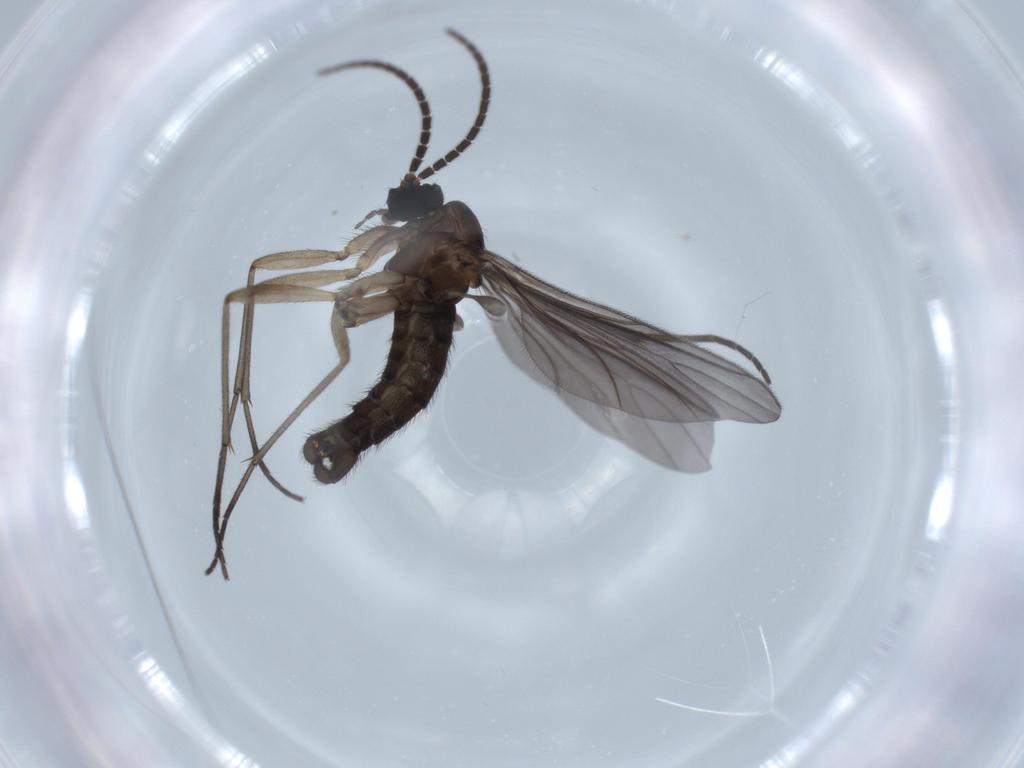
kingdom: Animalia
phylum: Arthropoda
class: Insecta
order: Diptera
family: Sciaridae
